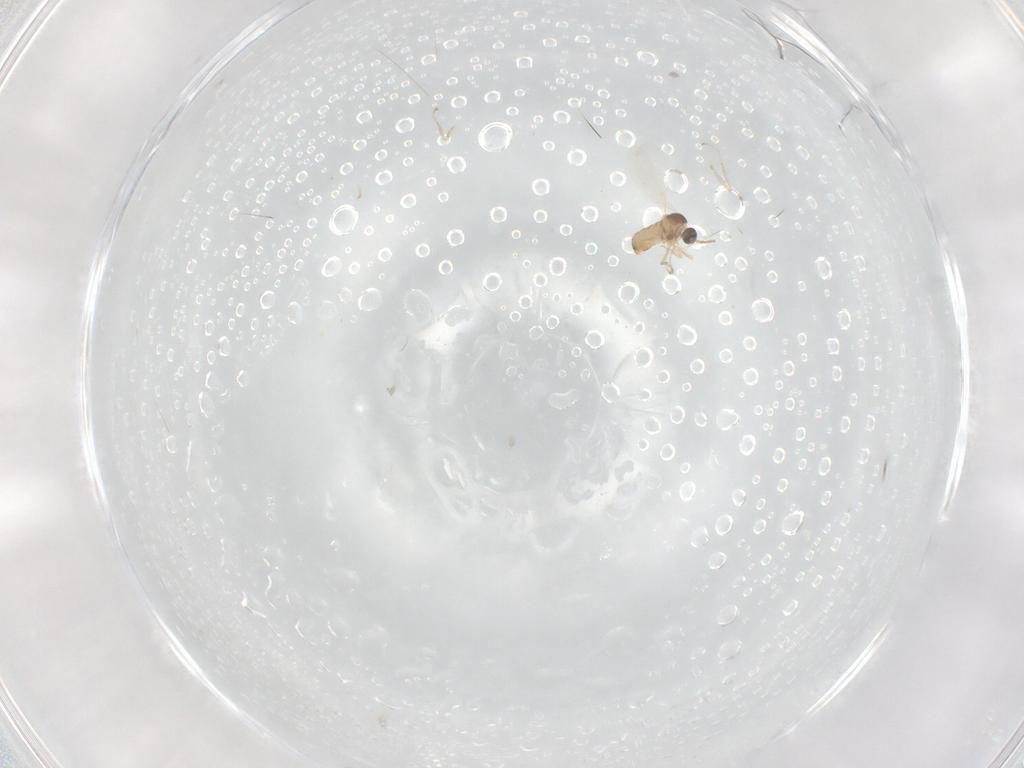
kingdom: Animalia
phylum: Arthropoda
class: Insecta
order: Diptera
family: Cecidomyiidae
